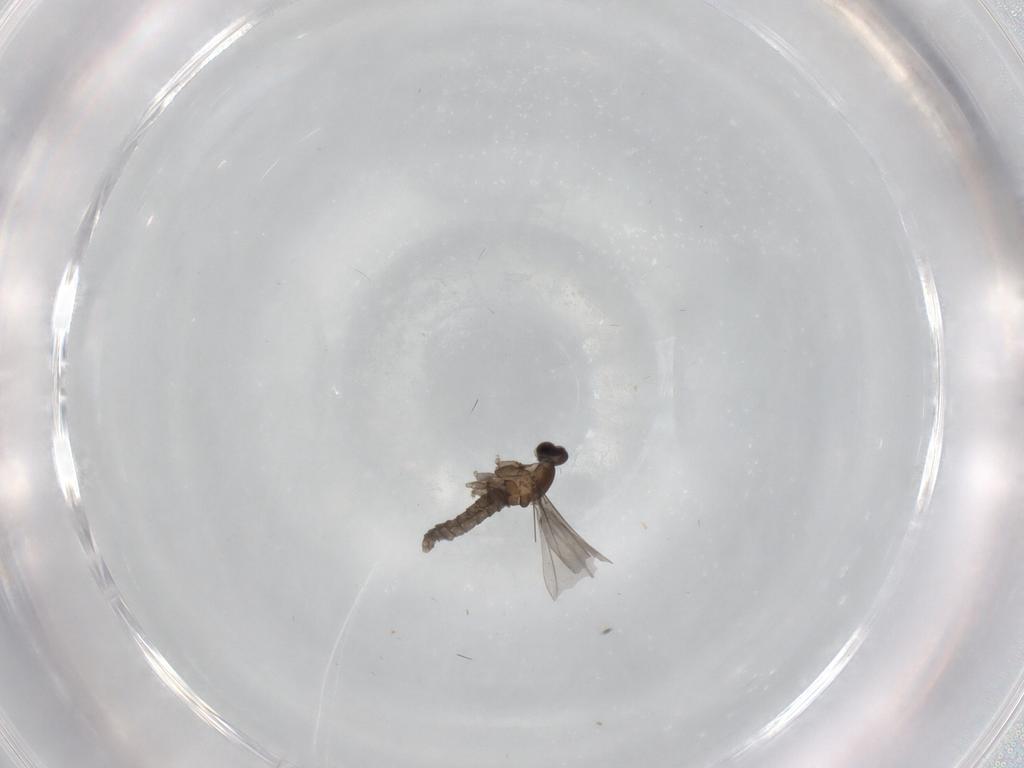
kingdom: Animalia
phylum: Arthropoda
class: Insecta
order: Diptera
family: Cecidomyiidae
